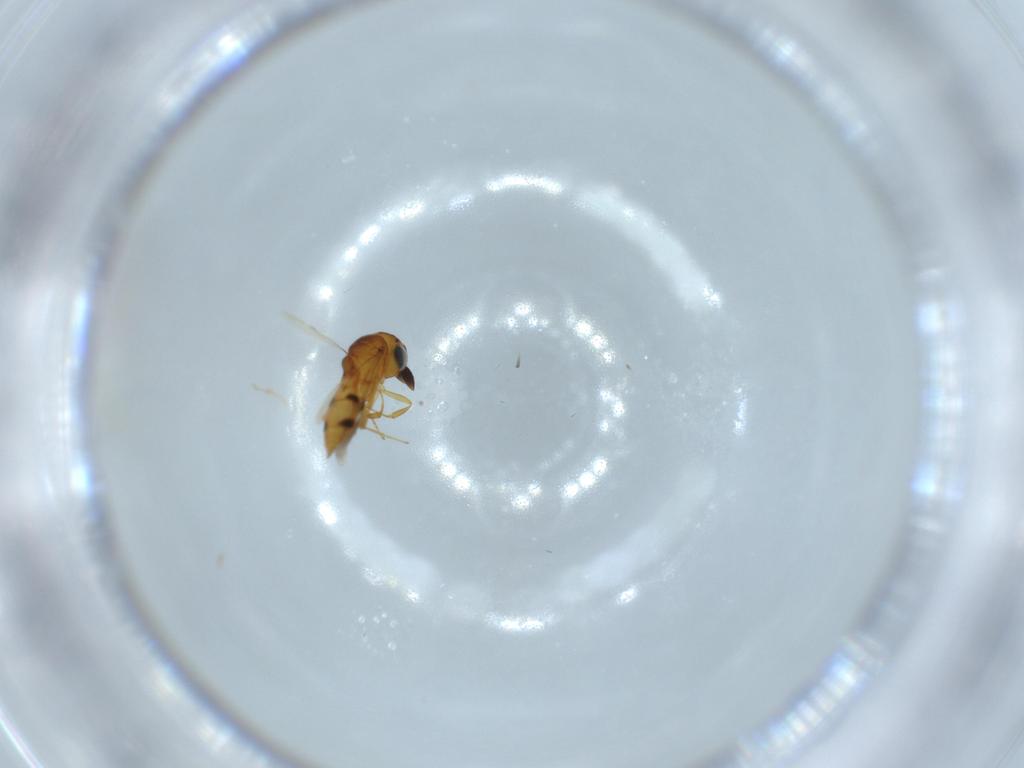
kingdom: Animalia
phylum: Arthropoda
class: Insecta
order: Hymenoptera
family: Scelionidae
